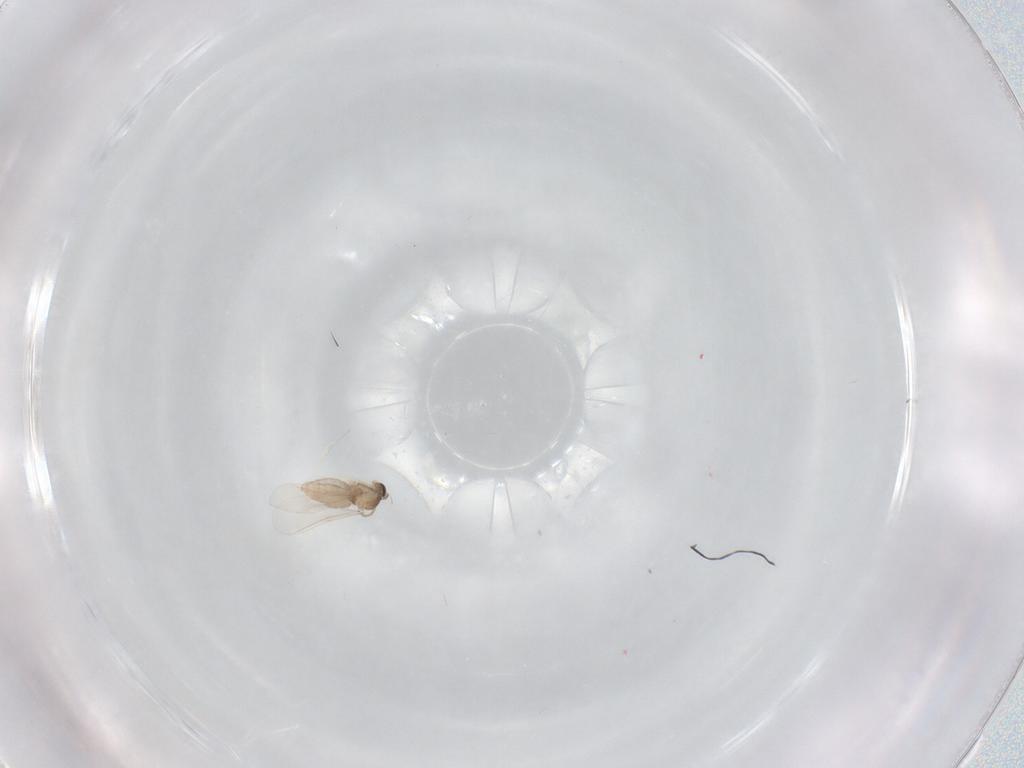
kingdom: Animalia
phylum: Arthropoda
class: Insecta
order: Diptera
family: Cecidomyiidae
